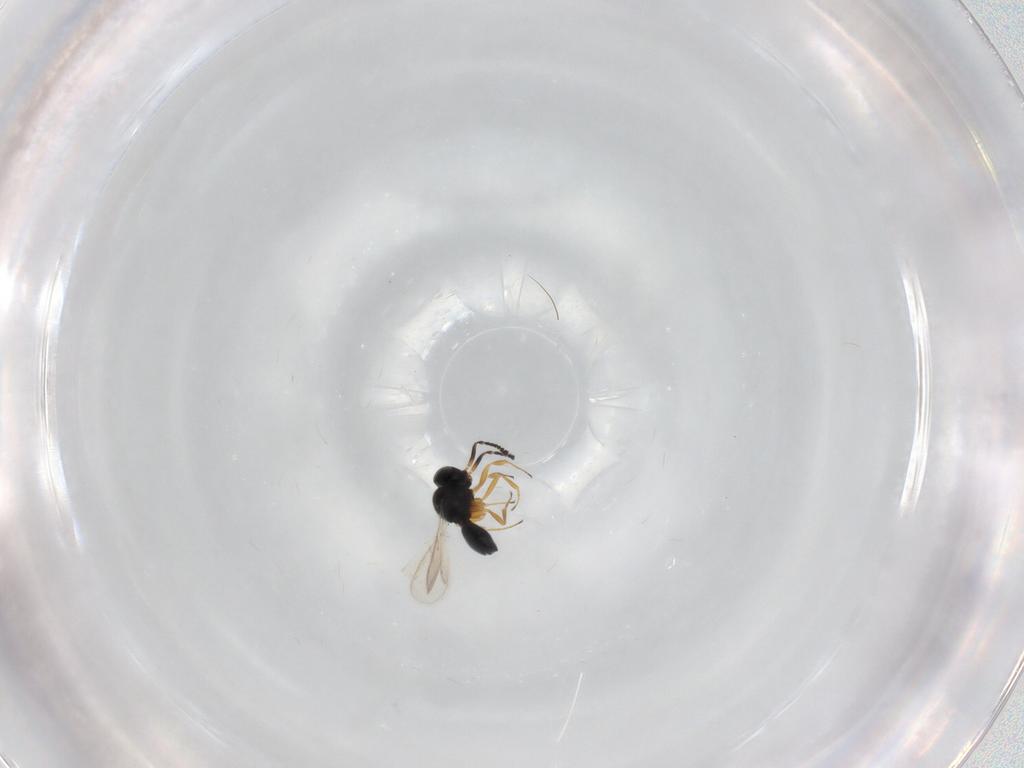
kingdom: Animalia
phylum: Arthropoda
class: Insecta
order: Hymenoptera
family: Scelionidae
